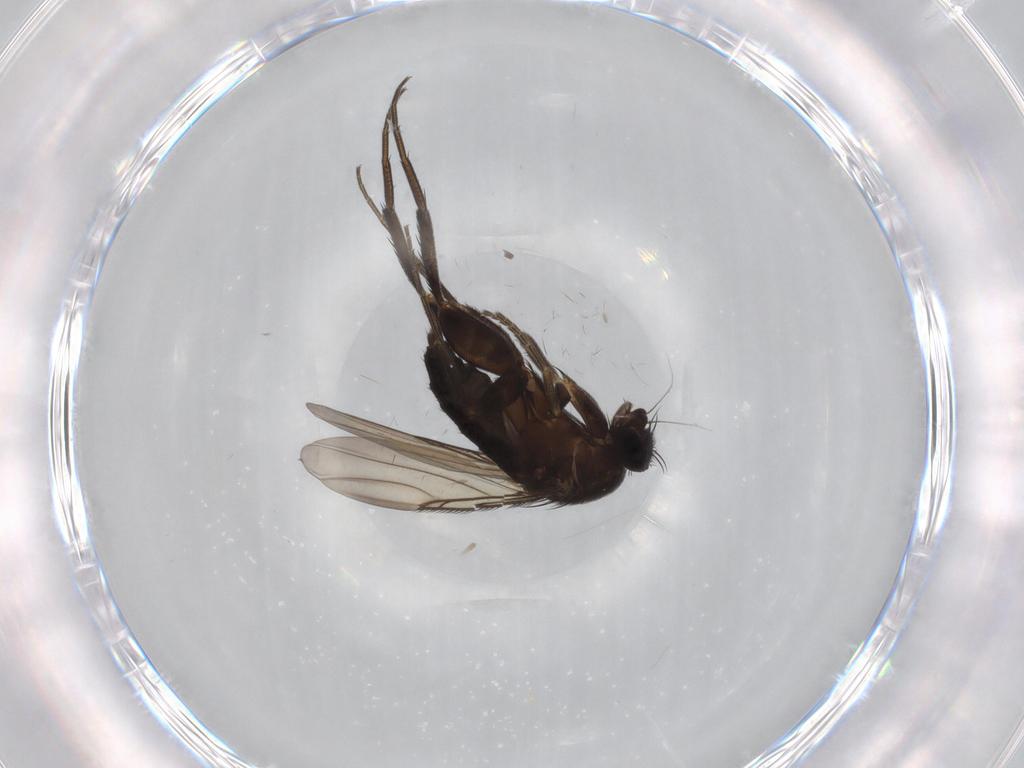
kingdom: Animalia
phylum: Arthropoda
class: Insecta
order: Diptera
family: Phoridae
